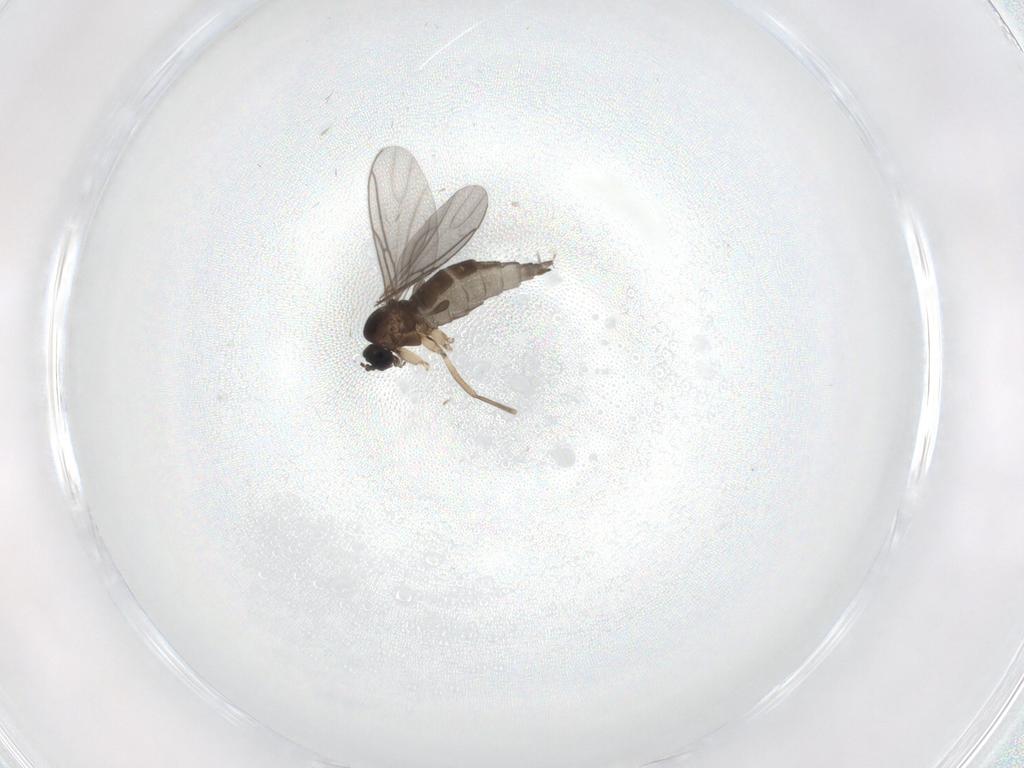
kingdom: Animalia
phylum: Arthropoda
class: Insecta
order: Diptera
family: Sciaridae
